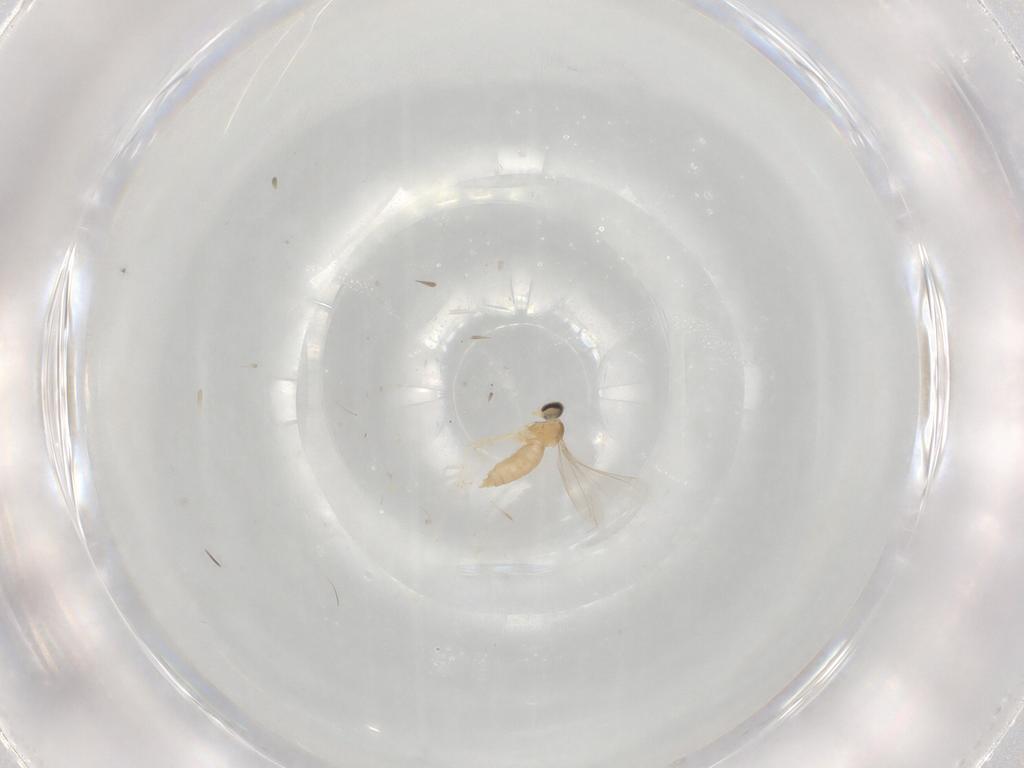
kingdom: Animalia
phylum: Arthropoda
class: Insecta
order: Diptera
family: Cecidomyiidae
